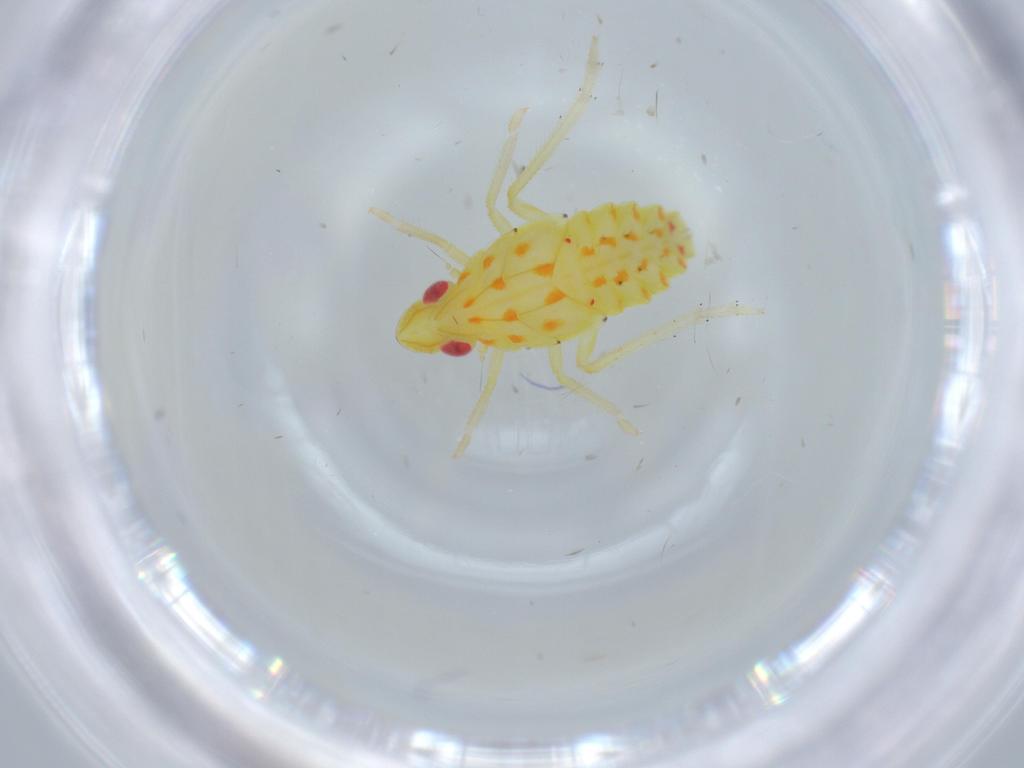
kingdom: Animalia
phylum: Arthropoda
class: Insecta
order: Hemiptera
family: Tropiduchidae
